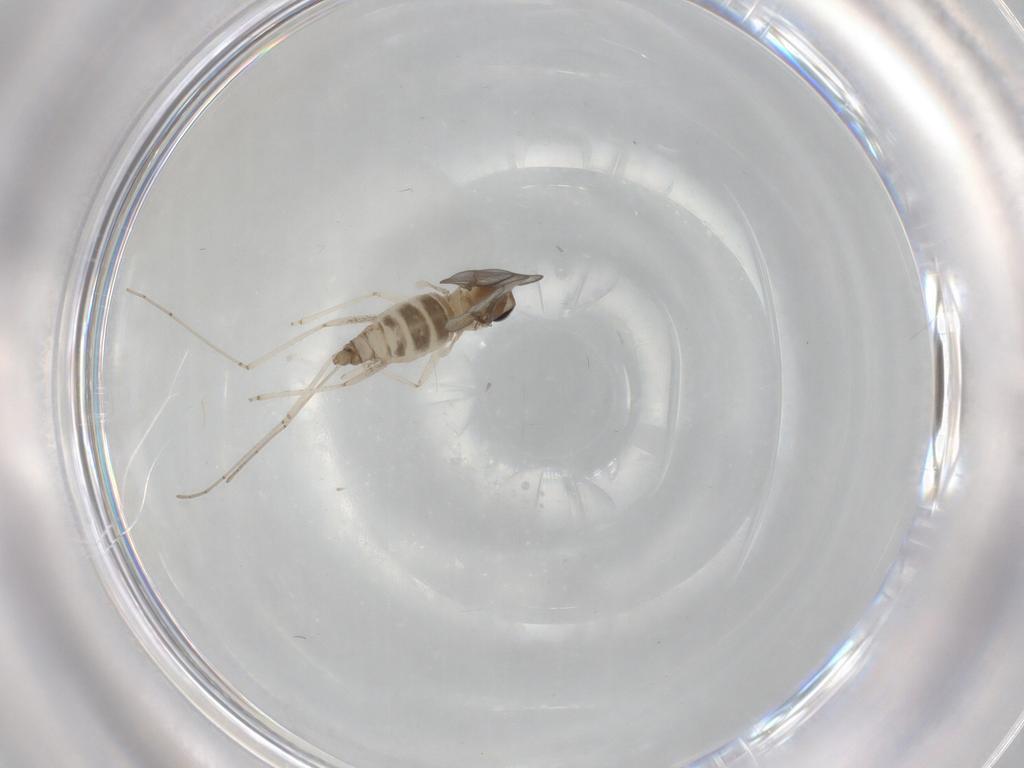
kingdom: Animalia
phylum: Arthropoda
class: Insecta
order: Diptera
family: Cecidomyiidae
